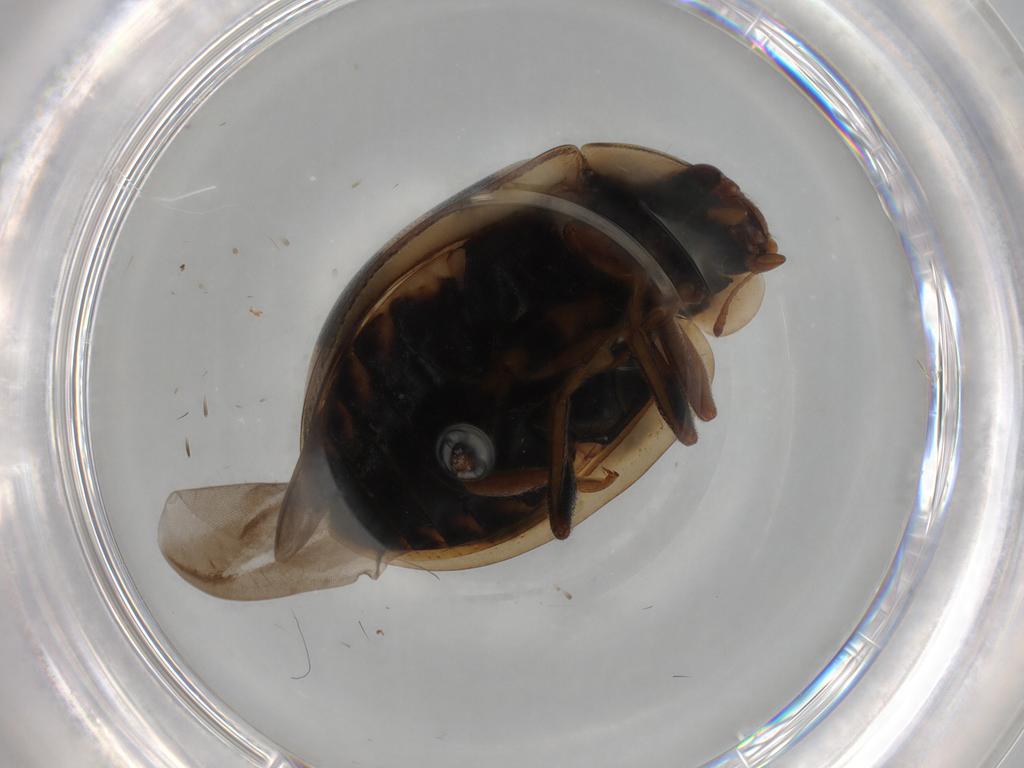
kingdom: Animalia
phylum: Arthropoda
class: Insecta
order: Coleoptera
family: Coccinellidae
